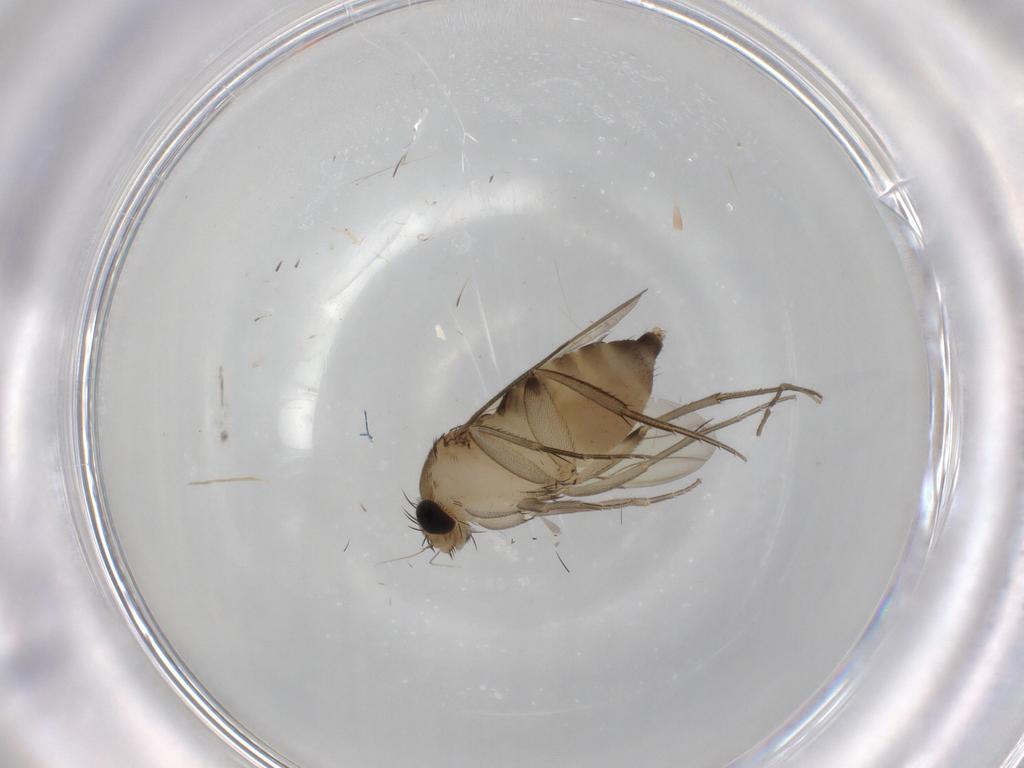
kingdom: Animalia
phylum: Arthropoda
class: Insecta
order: Diptera
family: Phoridae
